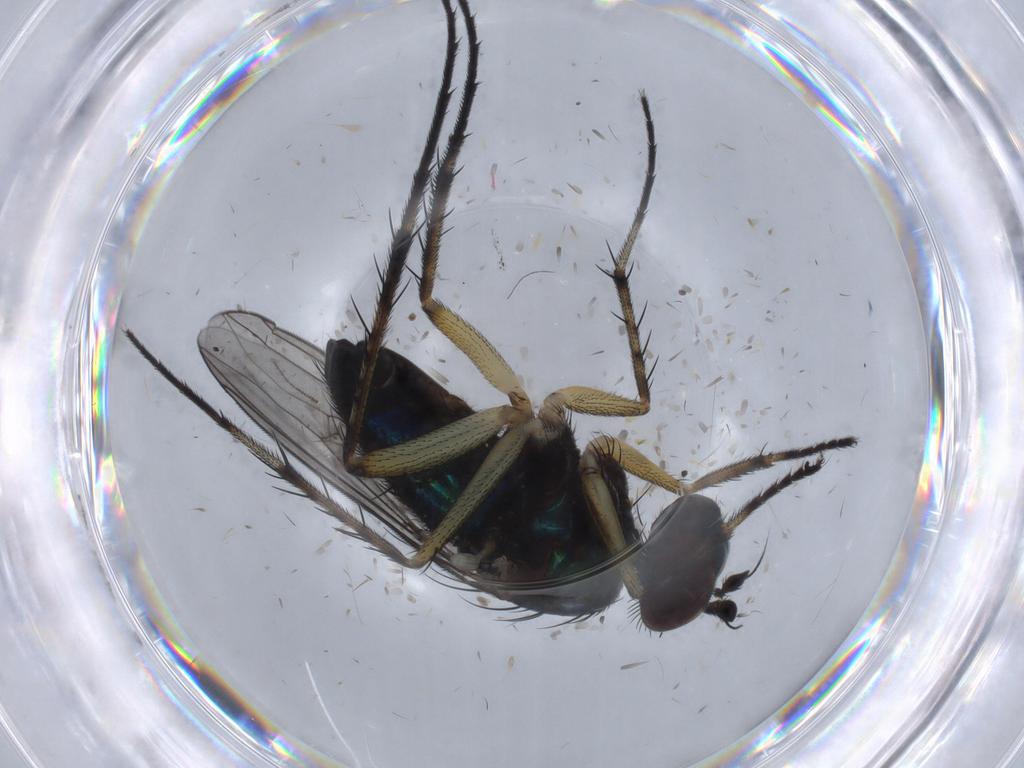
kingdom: Animalia
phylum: Arthropoda
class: Insecta
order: Diptera
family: Chironomidae
